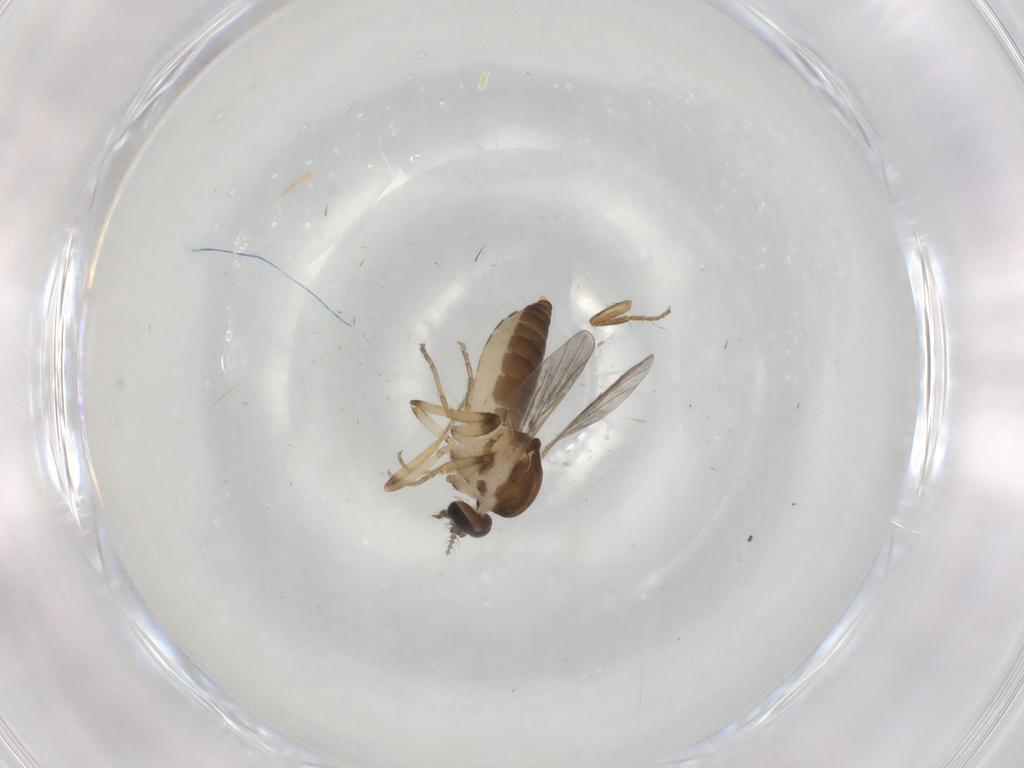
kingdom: Animalia
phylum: Arthropoda
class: Insecta
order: Diptera
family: Ceratopogonidae
